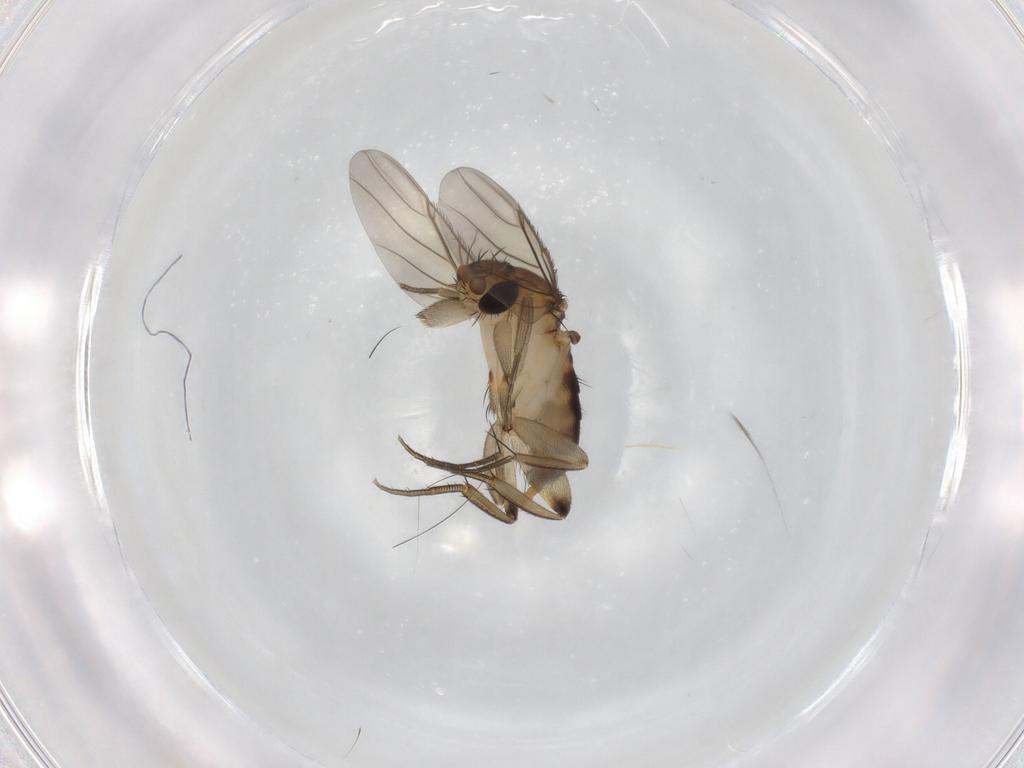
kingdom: Animalia
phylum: Arthropoda
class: Insecta
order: Diptera
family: Phoridae
